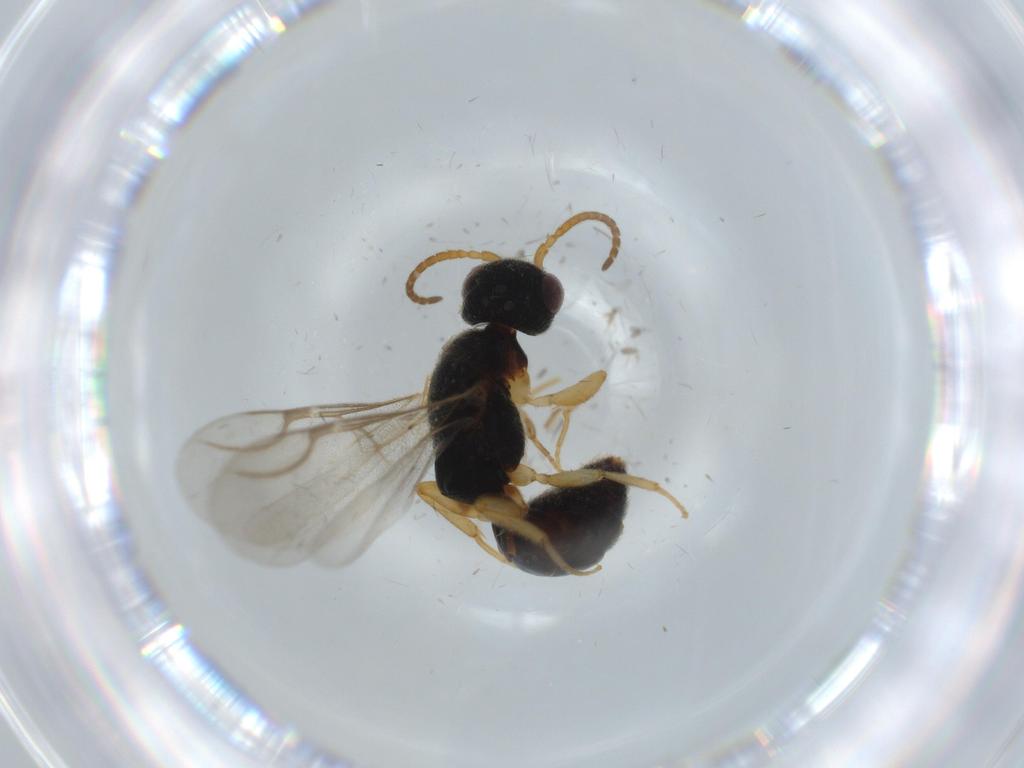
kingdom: Animalia
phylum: Arthropoda
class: Insecta
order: Hymenoptera
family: Bethylidae
